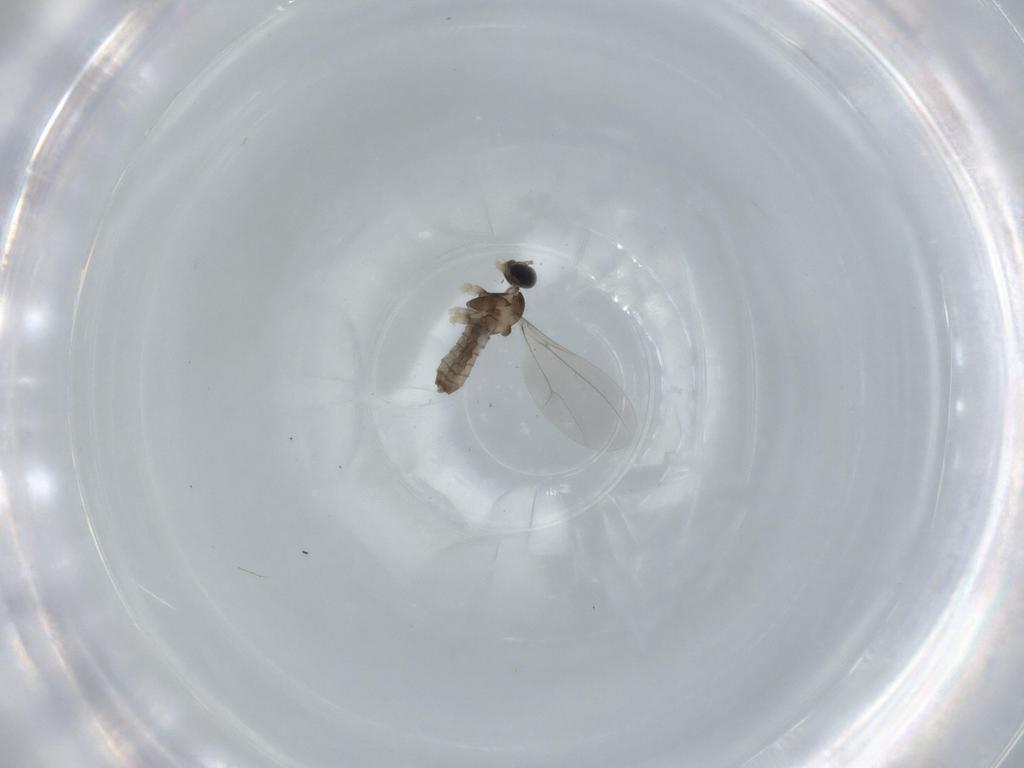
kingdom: Animalia
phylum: Arthropoda
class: Insecta
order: Diptera
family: Cecidomyiidae
